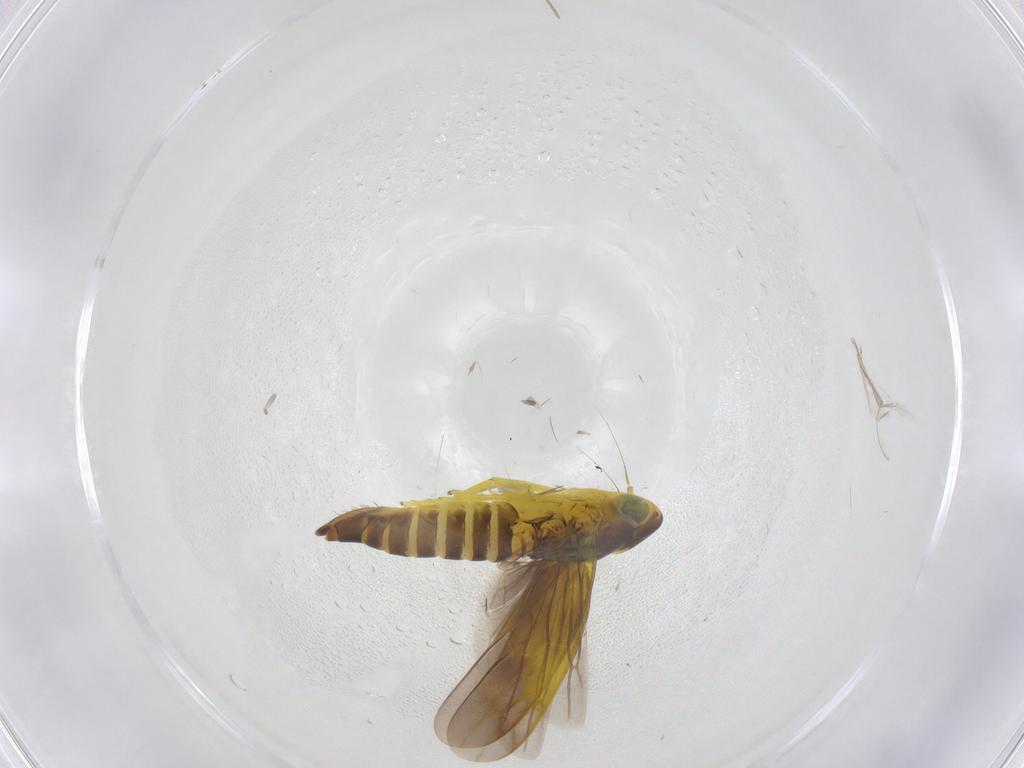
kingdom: Animalia
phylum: Arthropoda
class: Insecta
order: Hemiptera
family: Cicadellidae
